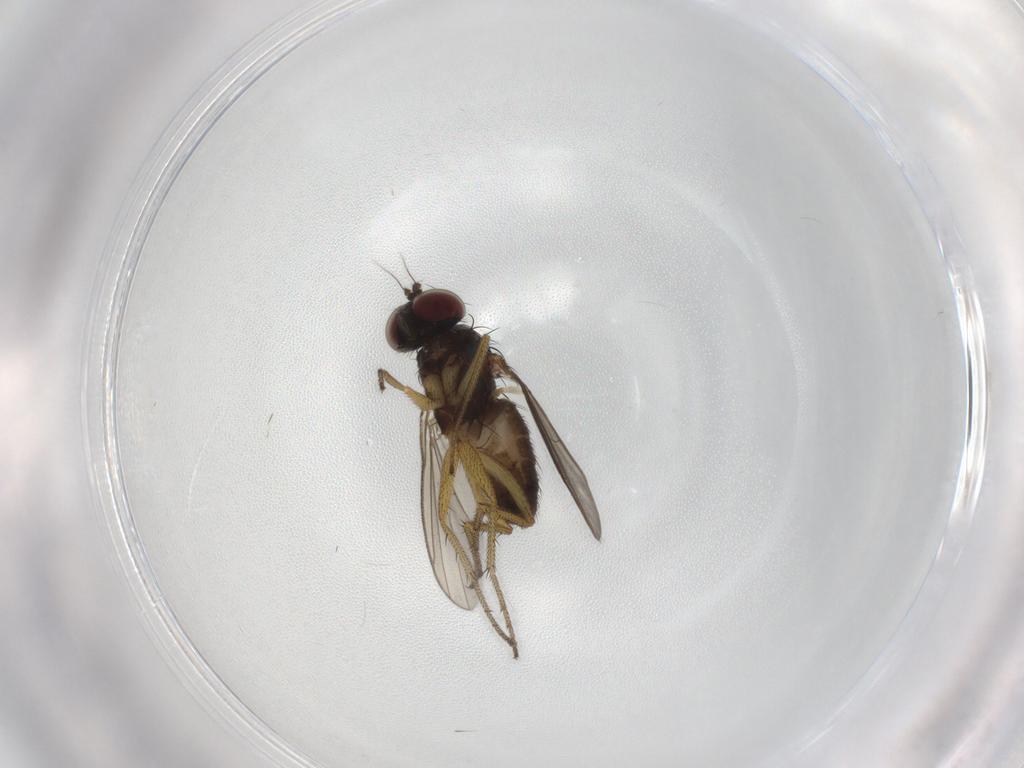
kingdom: Animalia
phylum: Arthropoda
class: Insecta
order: Diptera
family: Dolichopodidae
